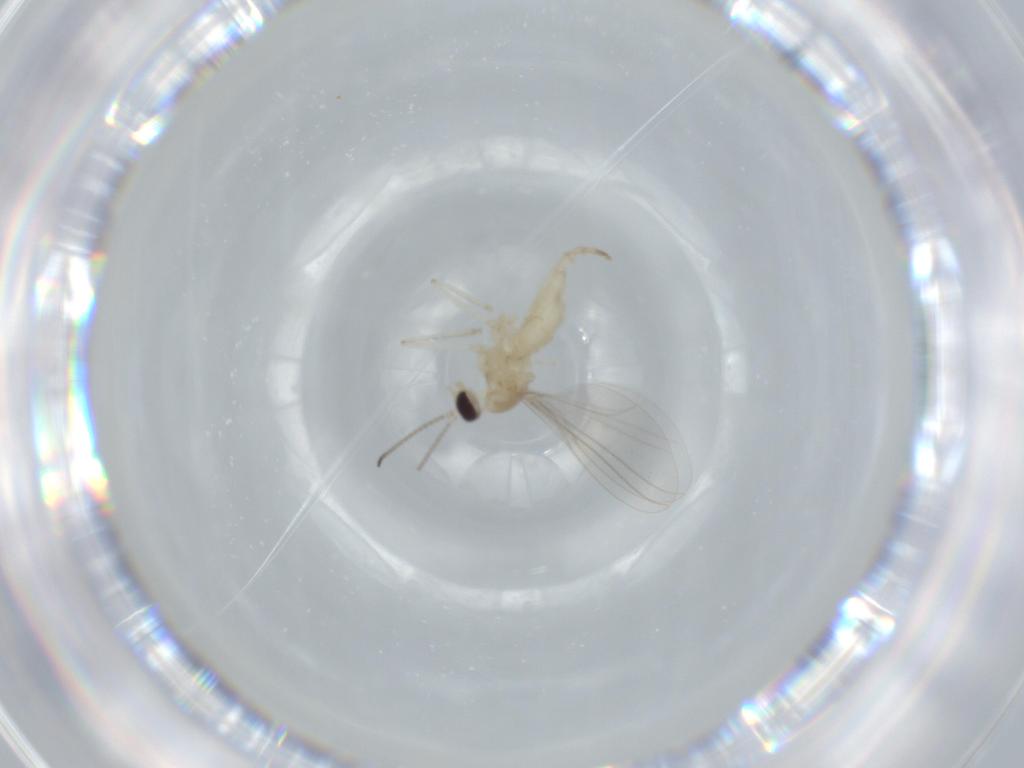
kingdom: Animalia
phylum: Arthropoda
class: Insecta
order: Diptera
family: Cecidomyiidae
